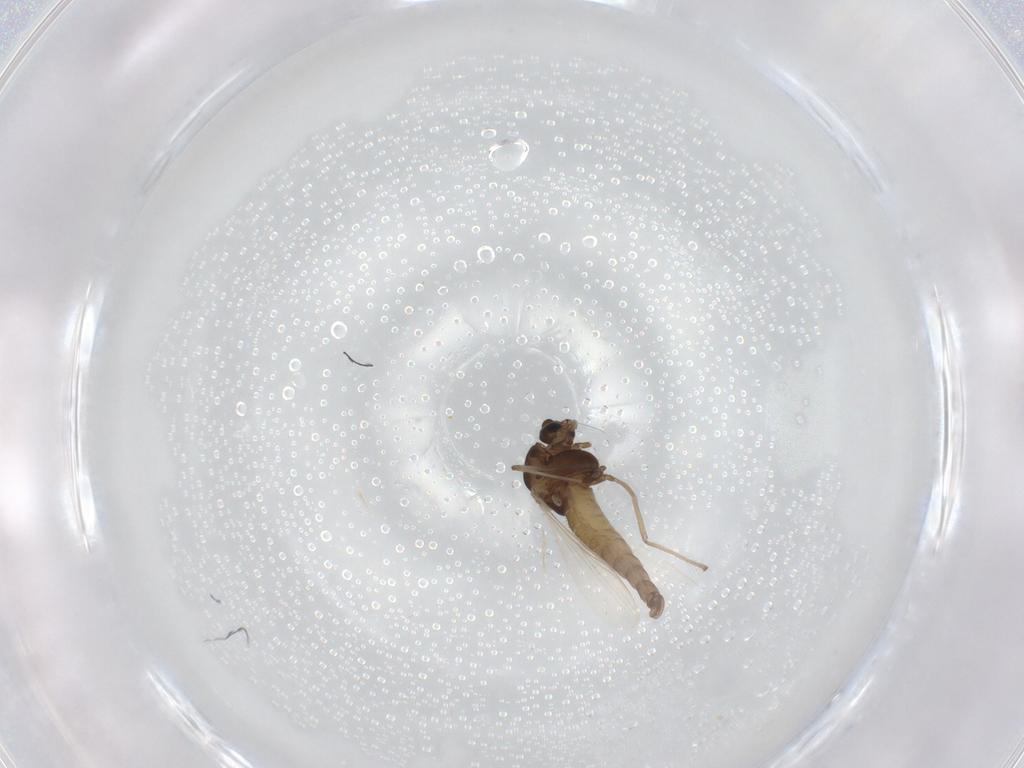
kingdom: Animalia
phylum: Arthropoda
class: Insecta
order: Diptera
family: Chironomidae
